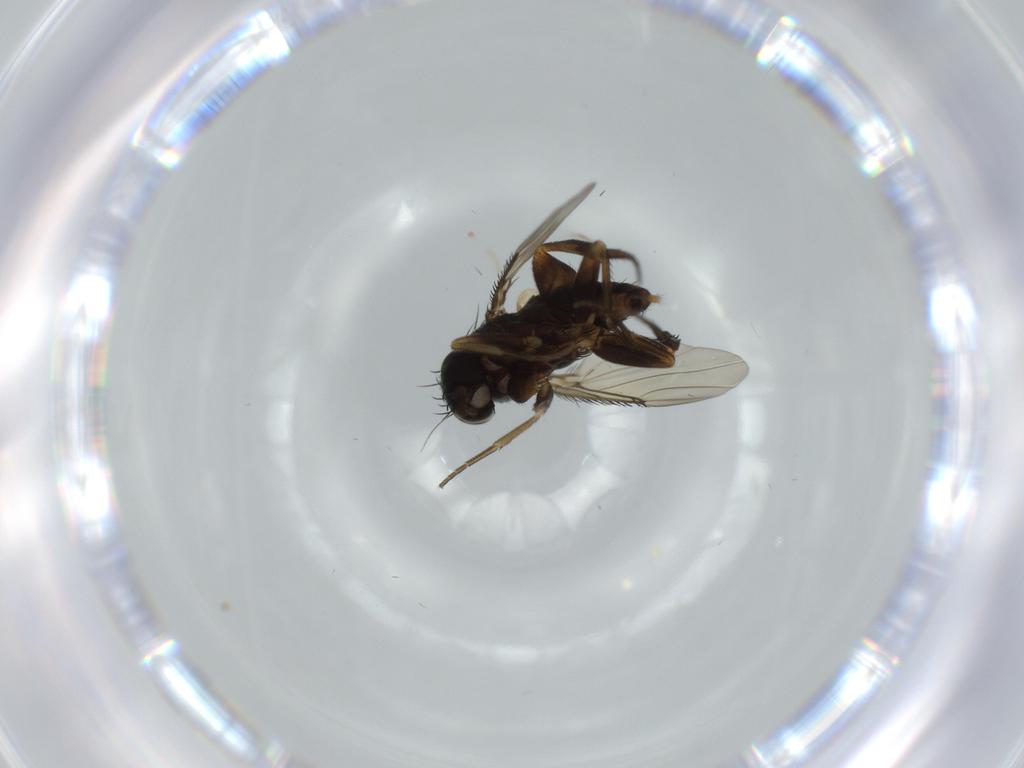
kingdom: Animalia
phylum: Arthropoda
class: Insecta
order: Diptera
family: Phoridae
